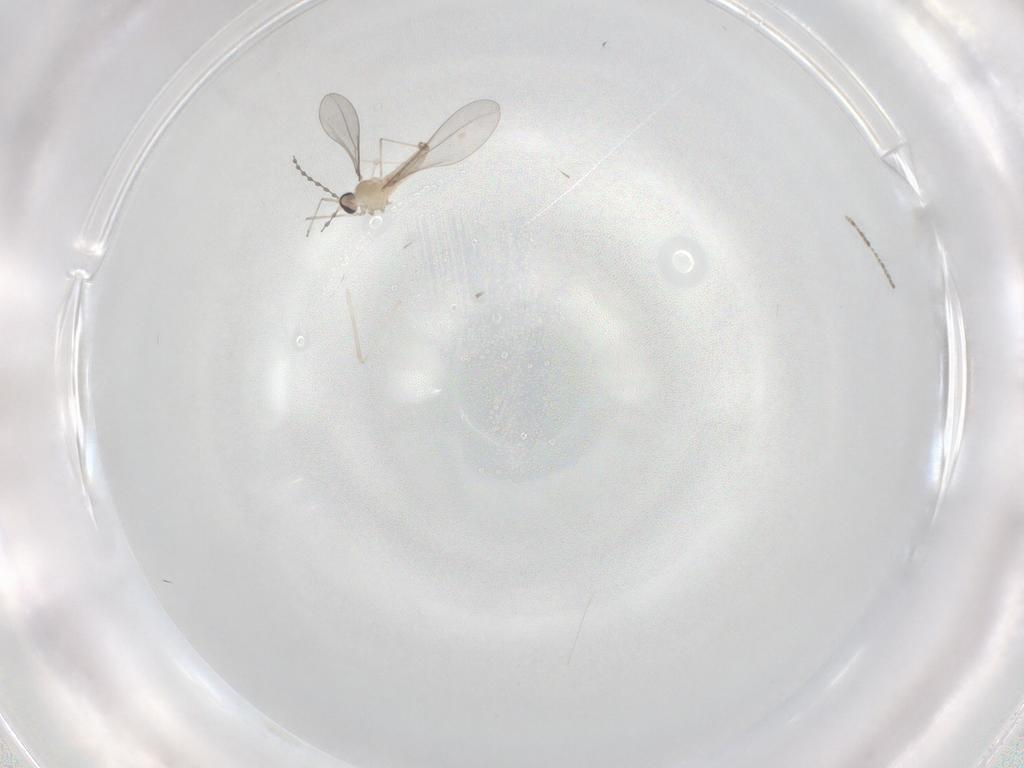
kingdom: Animalia
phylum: Arthropoda
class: Insecta
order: Diptera
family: Cecidomyiidae
